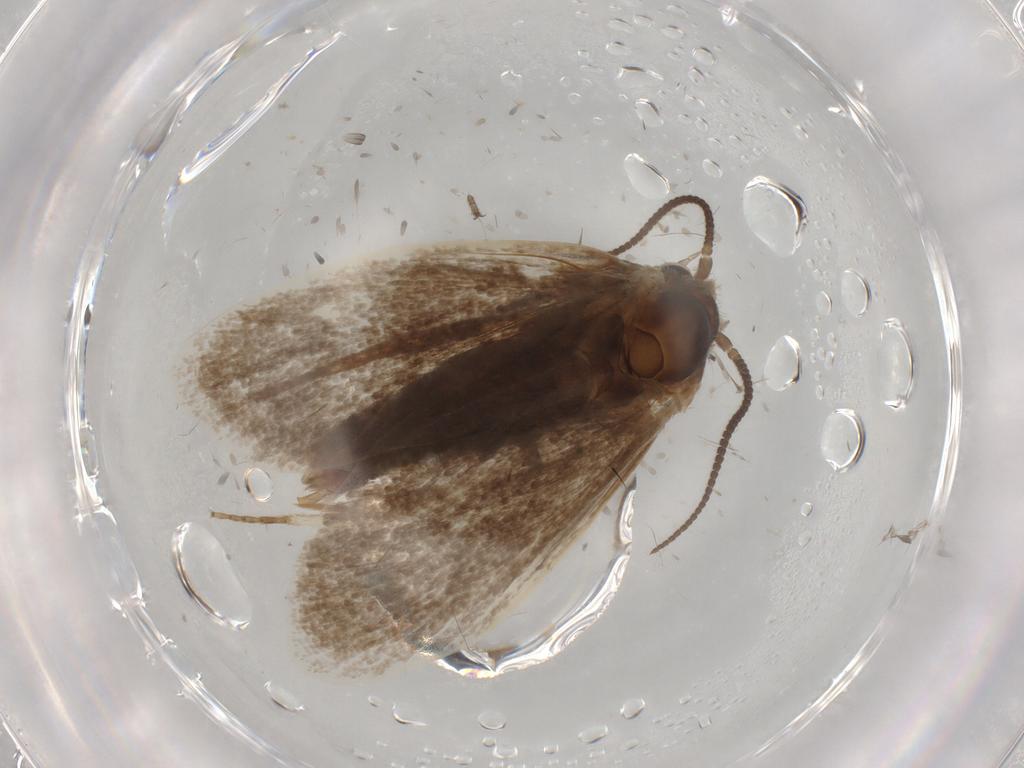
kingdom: Animalia
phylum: Arthropoda
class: Insecta
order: Lepidoptera
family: Tineidae
